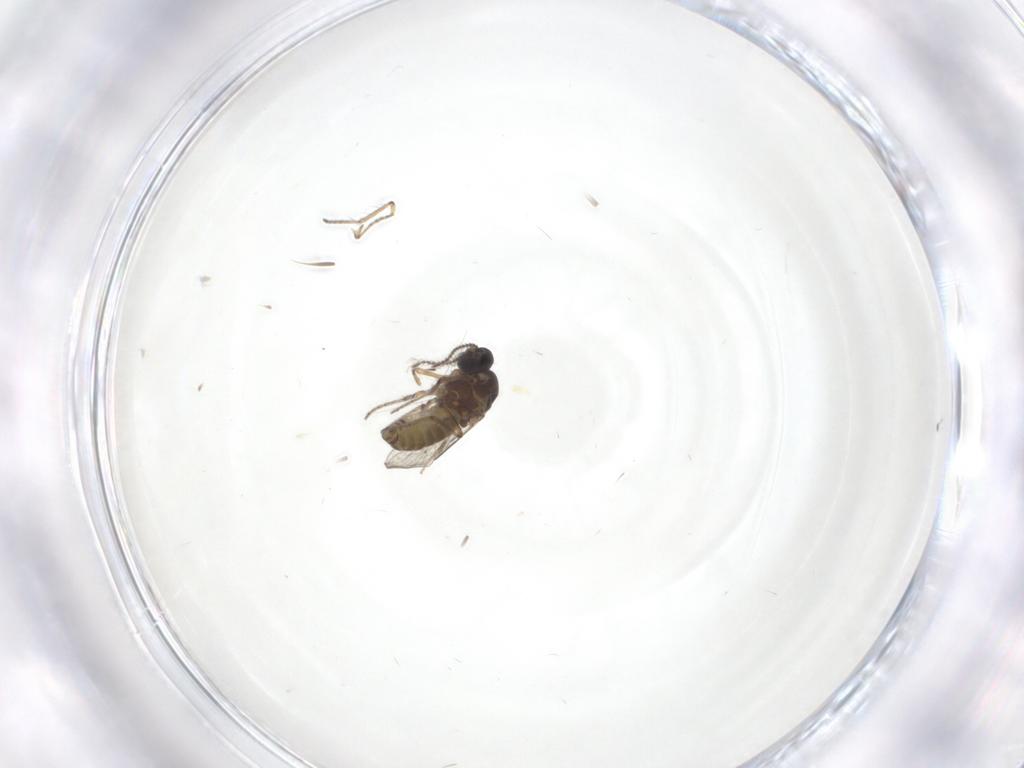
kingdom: Animalia
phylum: Arthropoda
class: Insecta
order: Diptera
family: Ceratopogonidae
